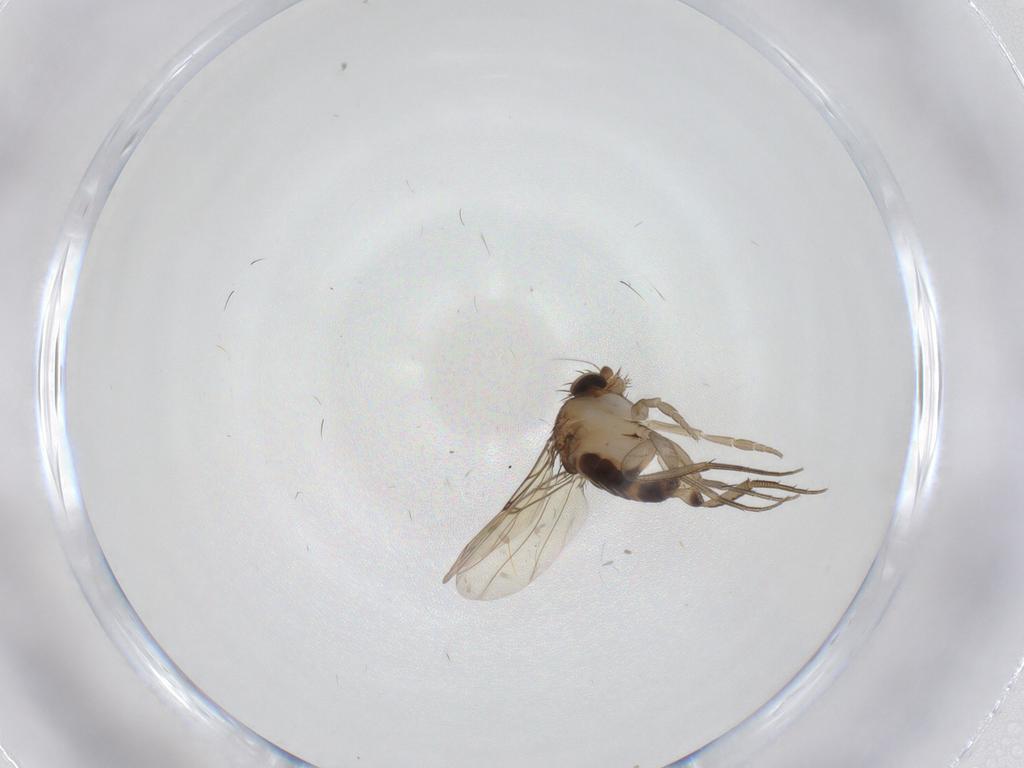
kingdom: Animalia
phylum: Arthropoda
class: Insecta
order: Diptera
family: Phoridae
